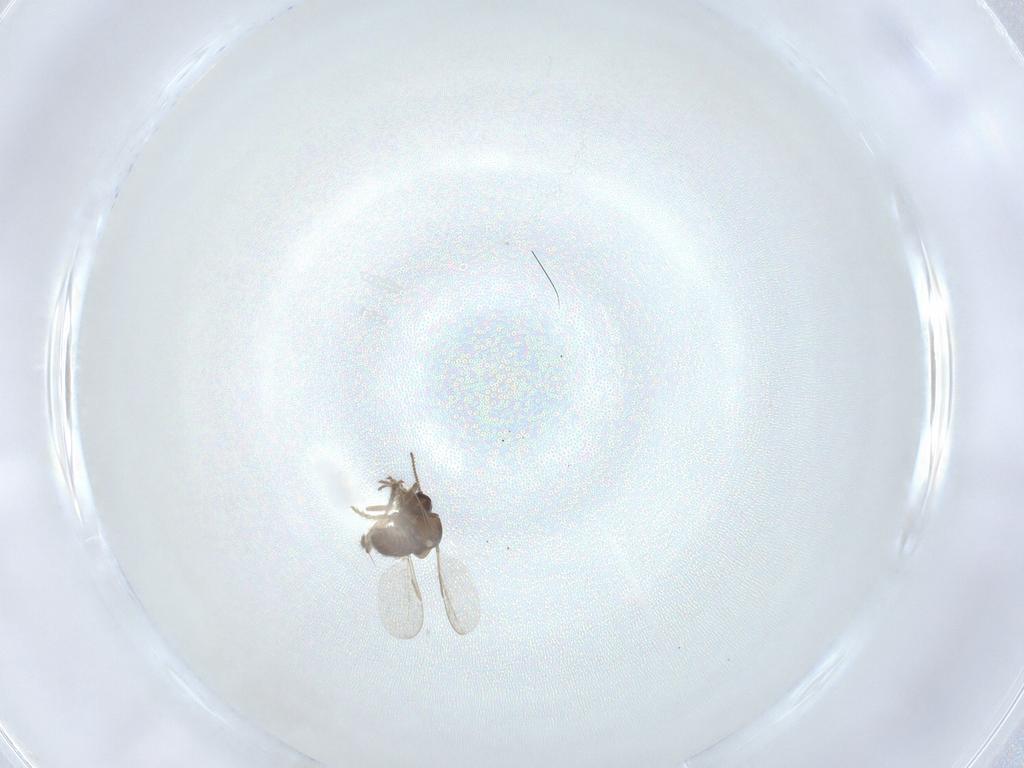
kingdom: Animalia
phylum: Arthropoda
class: Insecta
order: Diptera
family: Ceratopogonidae
